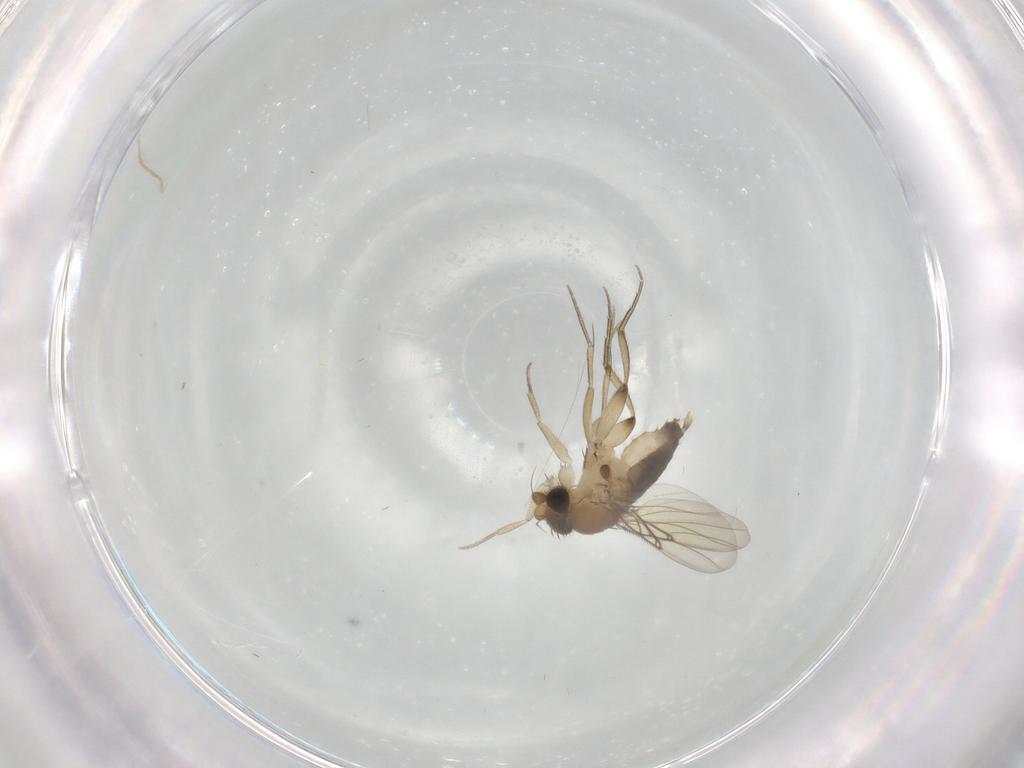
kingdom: Animalia
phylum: Arthropoda
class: Insecta
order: Diptera
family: Phoridae
